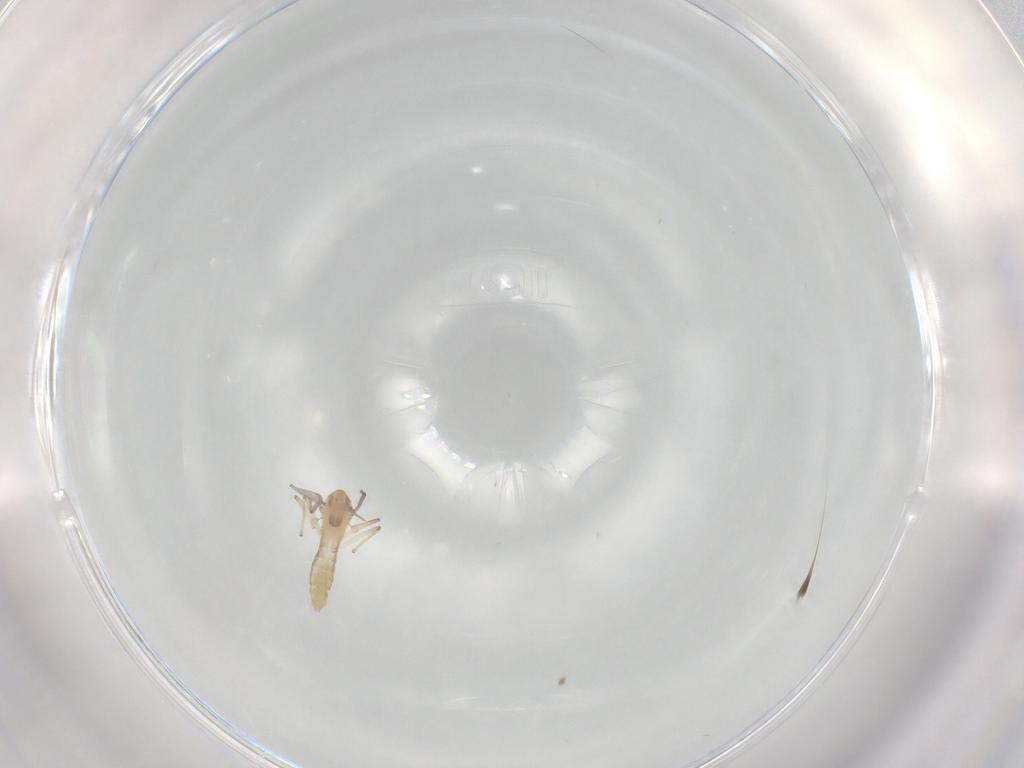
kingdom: Animalia
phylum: Arthropoda
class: Insecta
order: Diptera
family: Chironomidae
